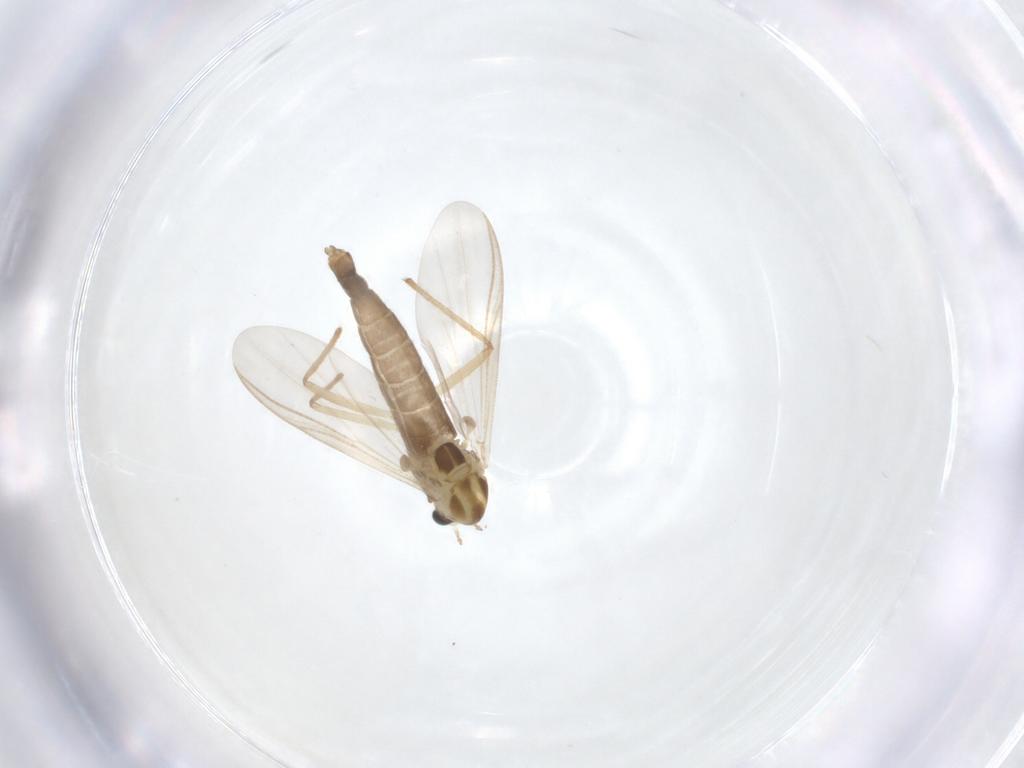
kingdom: Animalia
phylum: Arthropoda
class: Insecta
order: Diptera
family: Chironomidae
